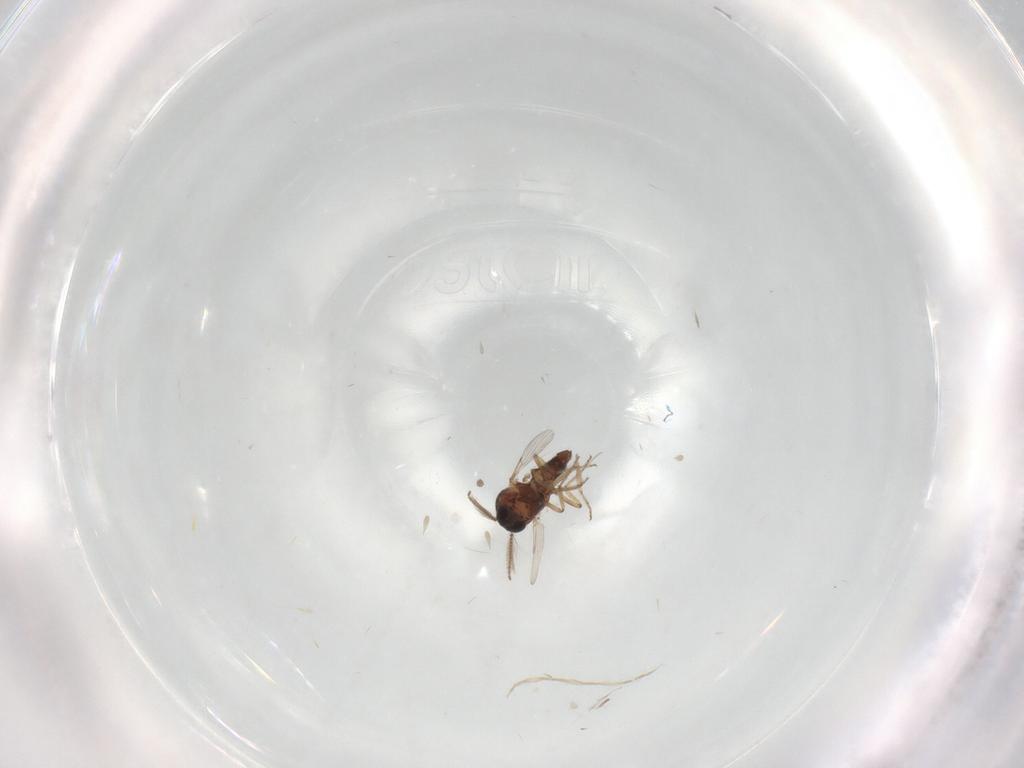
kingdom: Animalia
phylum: Arthropoda
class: Insecta
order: Diptera
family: Ceratopogonidae
